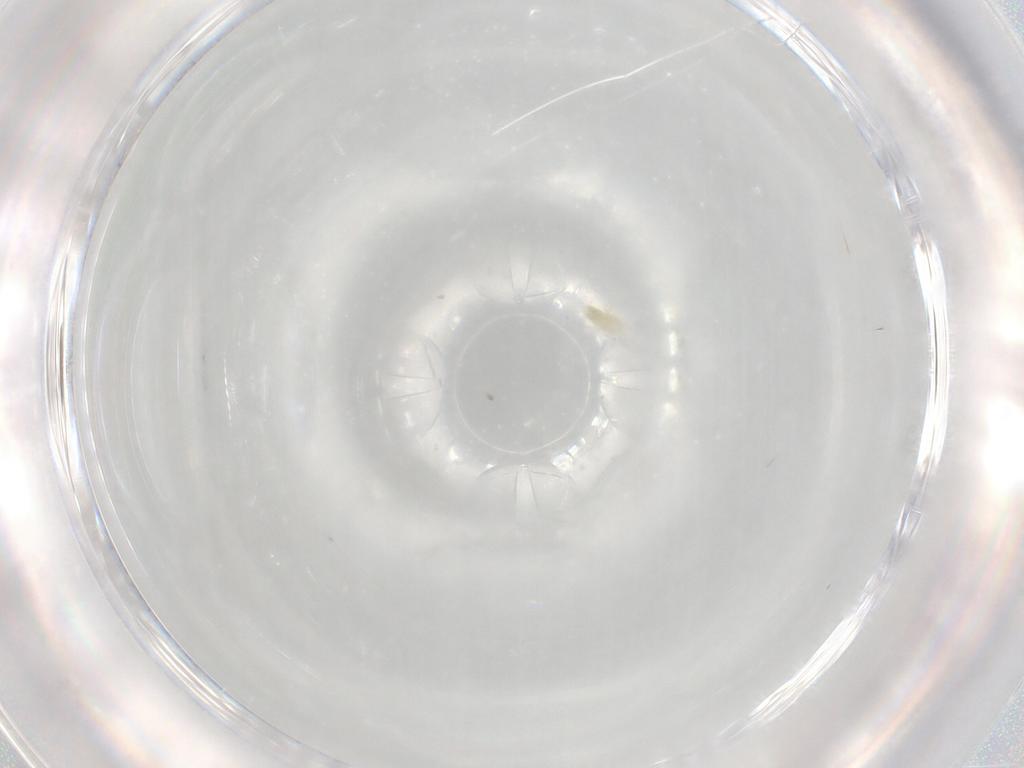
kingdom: Animalia
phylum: Arthropoda
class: Arachnida
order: Trombidiformes
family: Eupodidae
